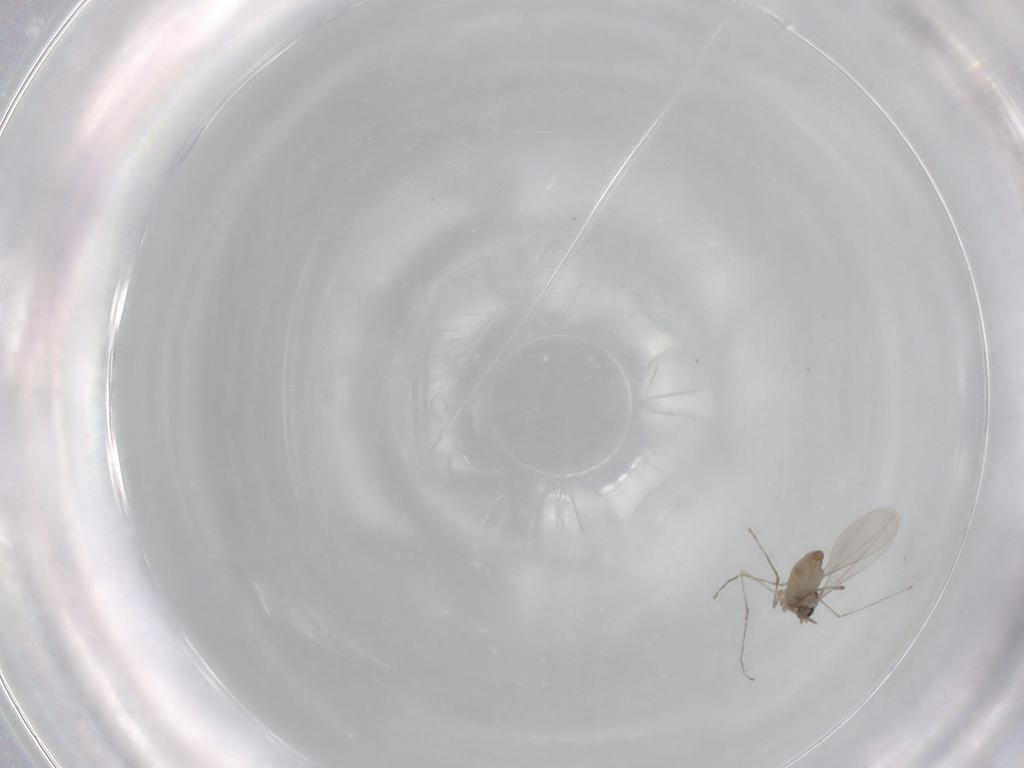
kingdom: Animalia
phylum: Arthropoda
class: Insecta
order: Diptera
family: Cecidomyiidae
